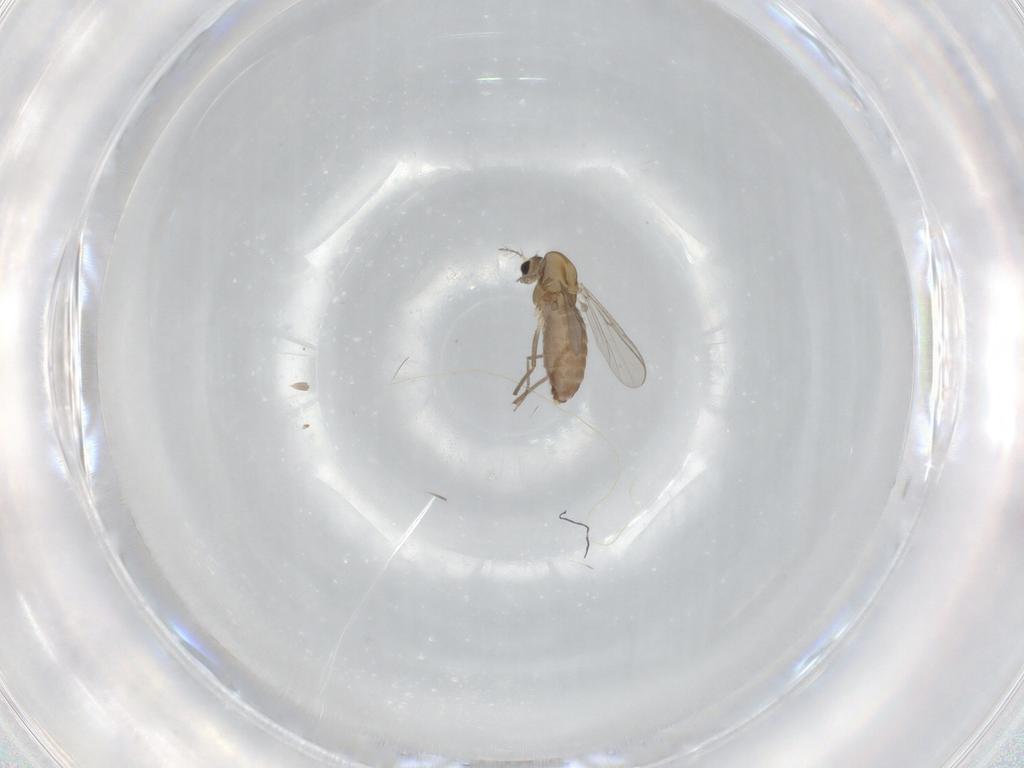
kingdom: Animalia
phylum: Arthropoda
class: Insecta
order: Diptera
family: Chironomidae
